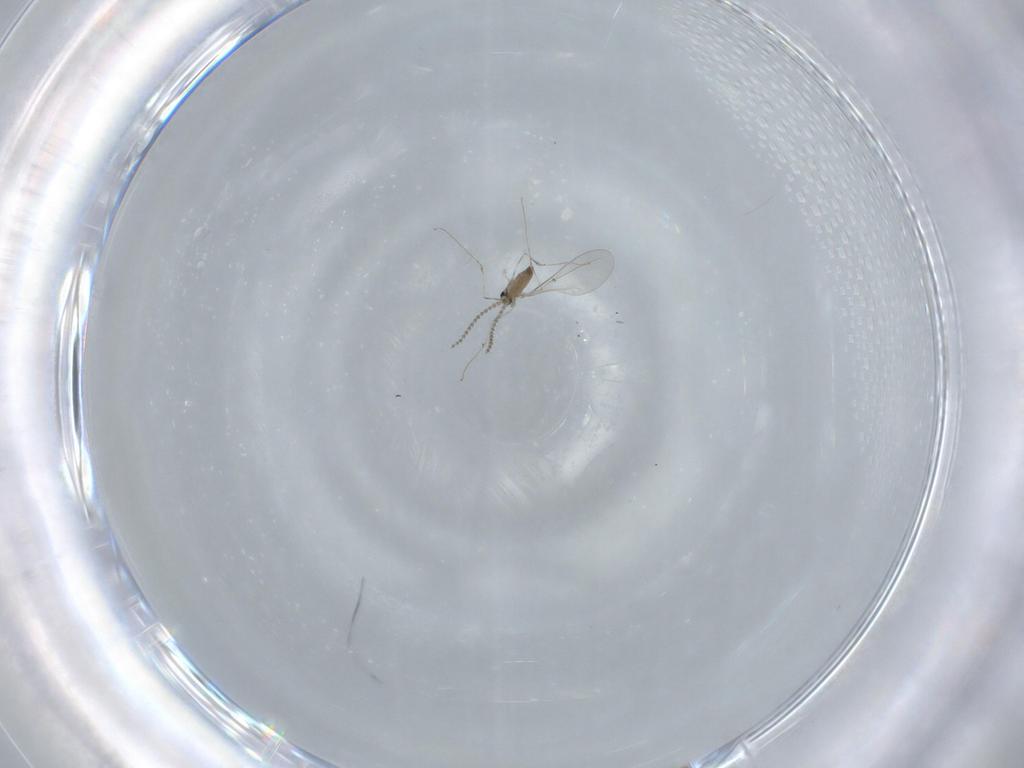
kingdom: Animalia
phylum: Arthropoda
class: Insecta
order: Diptera
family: Cecidomyiidae
